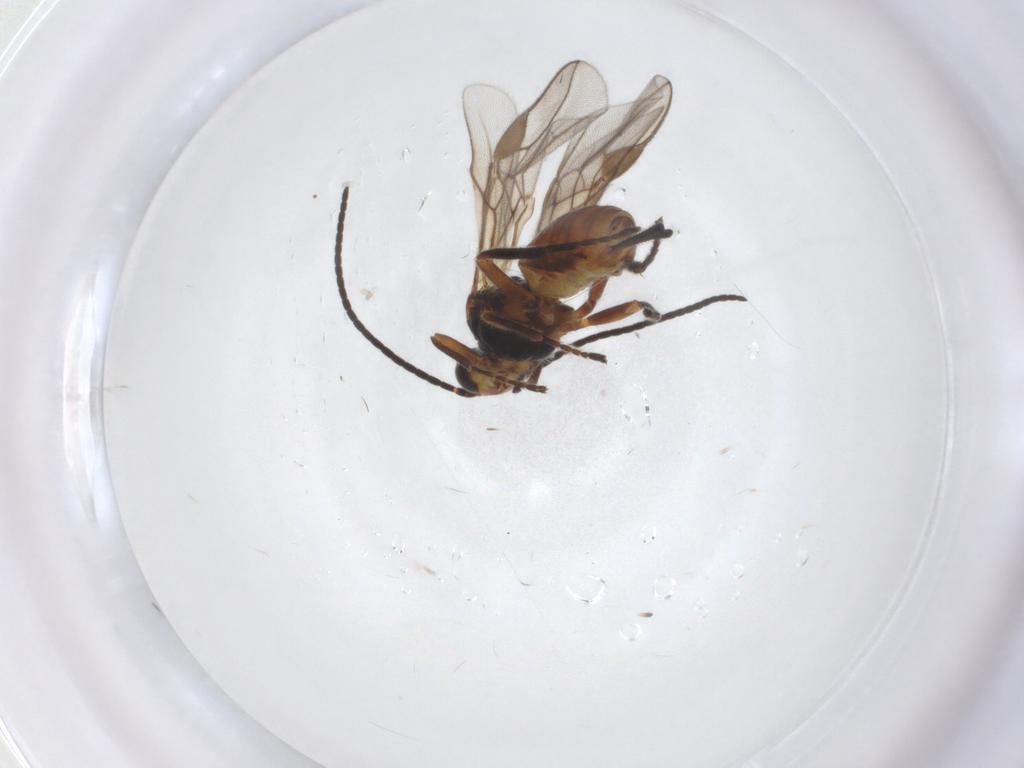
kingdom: Animalia
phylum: Arthropoda
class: Insecta
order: Hymenoptera
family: Braconidae
